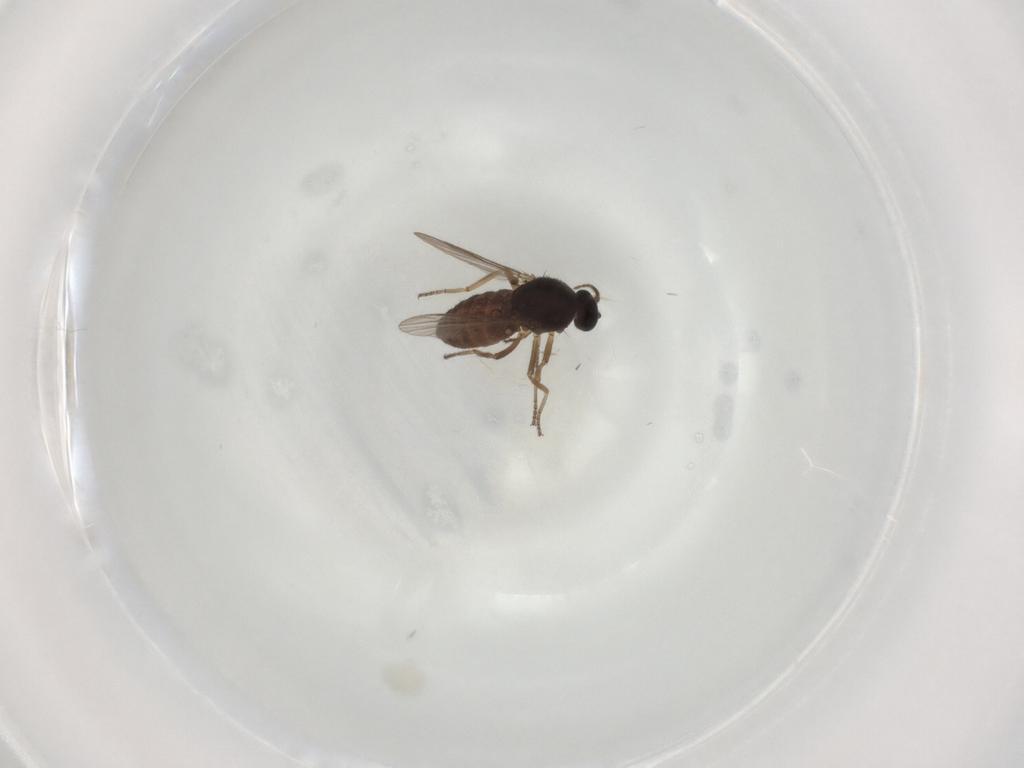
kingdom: Animalia
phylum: Arthropoda
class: Insecta
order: Diptera
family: Ceratopogonidae
